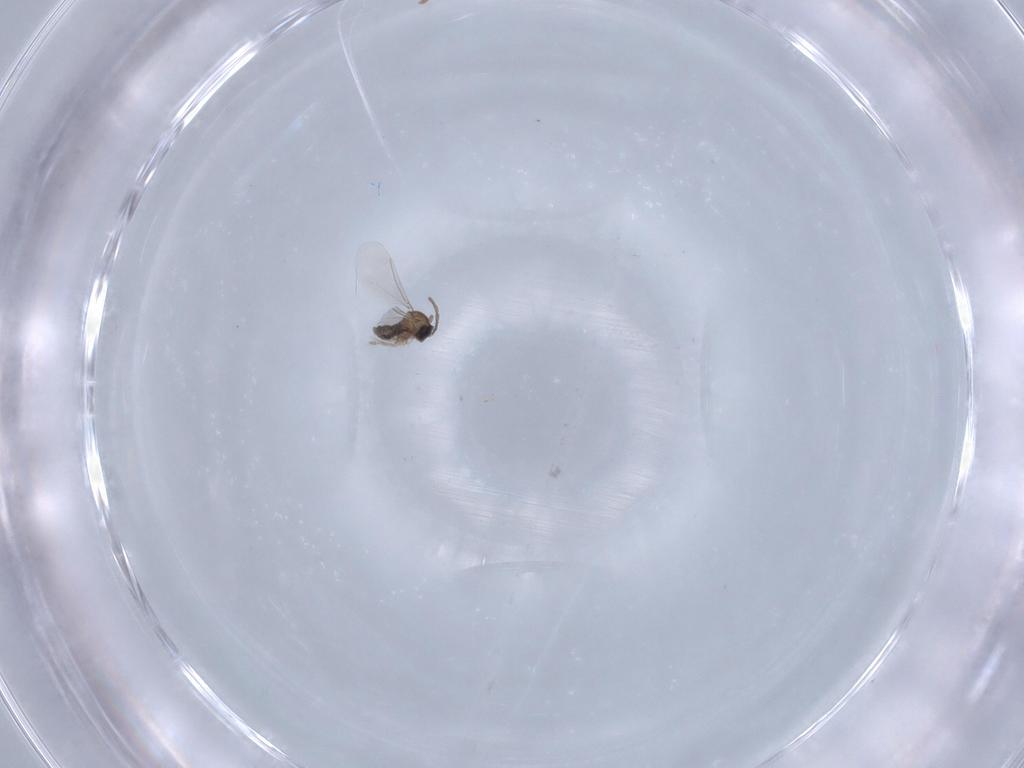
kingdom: Animalia
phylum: Arthropoda
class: Insecta
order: Diptera
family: Cecidomyiidae
